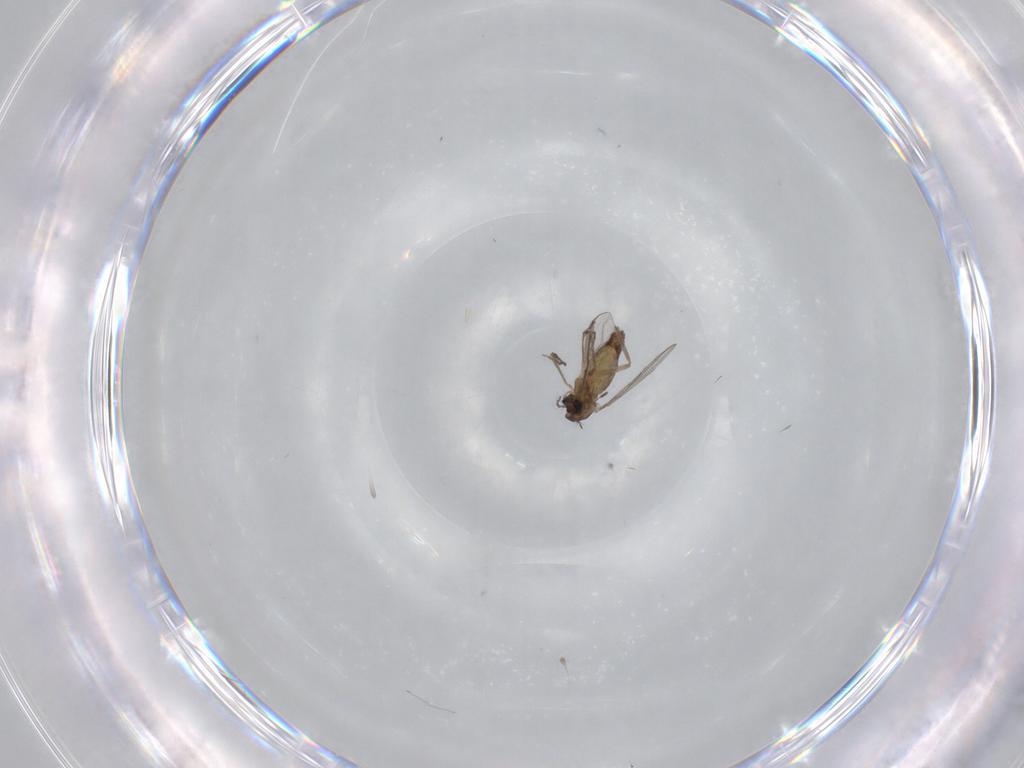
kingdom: Animalia
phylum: Arthropoda
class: Insecta
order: Diptera
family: Chironomidae
